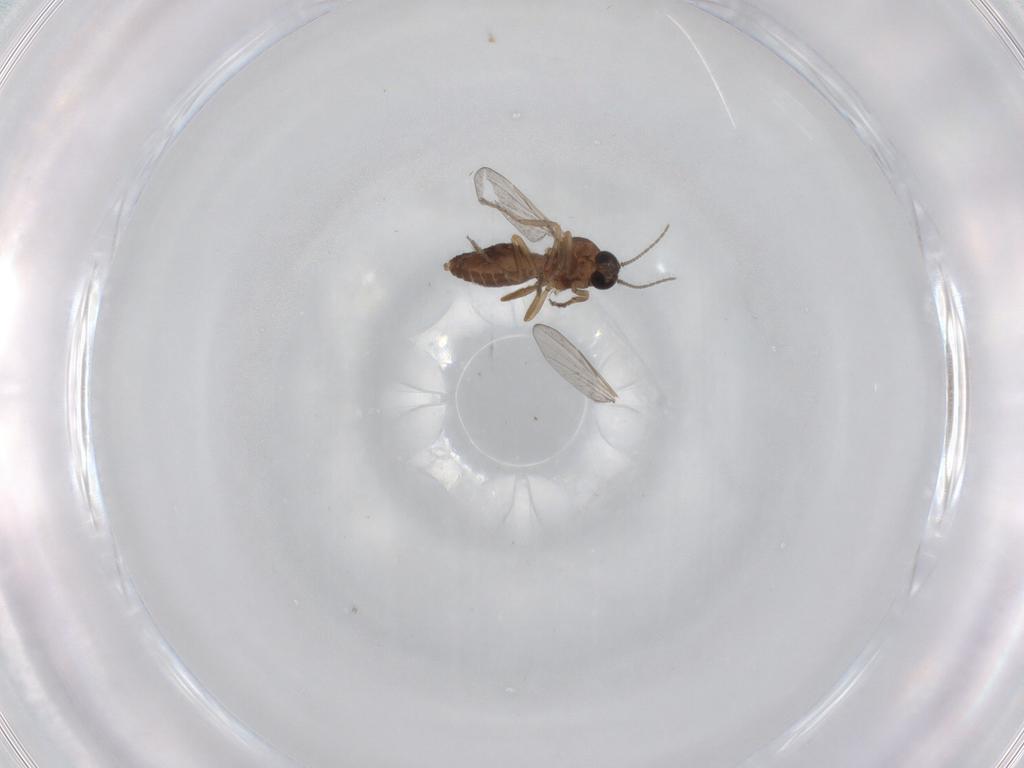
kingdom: Animalia
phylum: Arthropoda
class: Insecta
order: Diptera
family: Ceratopogonidae
